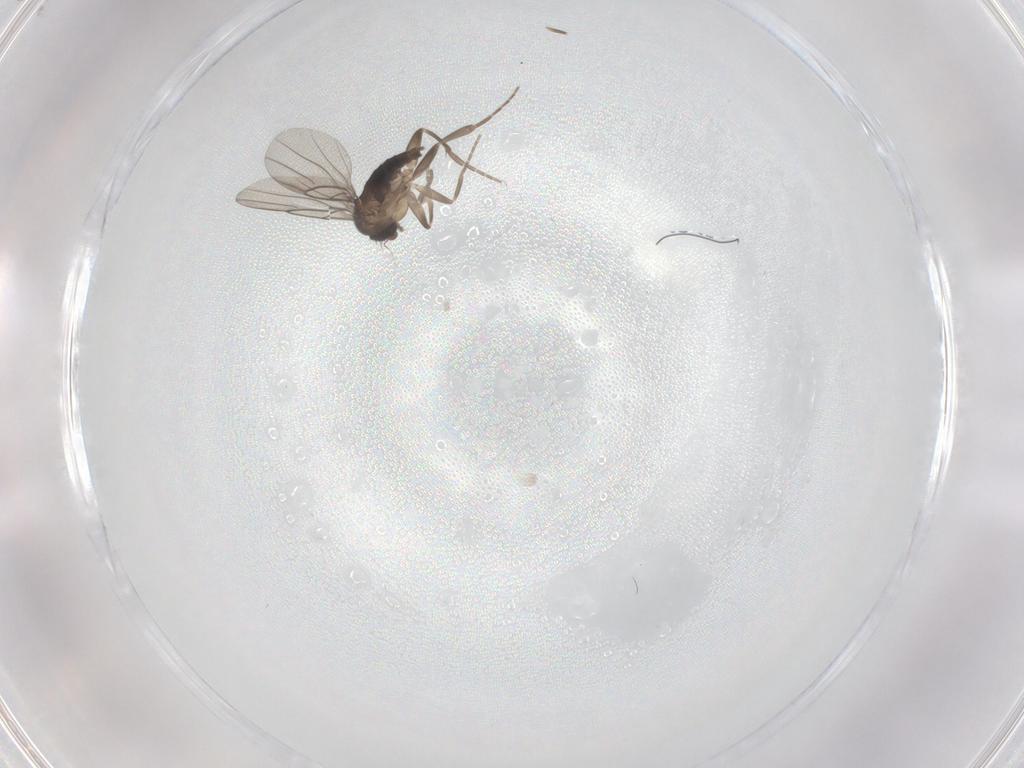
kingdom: Animalia
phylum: Arthropoda
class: Insecta
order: Diptera
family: Phoridae
